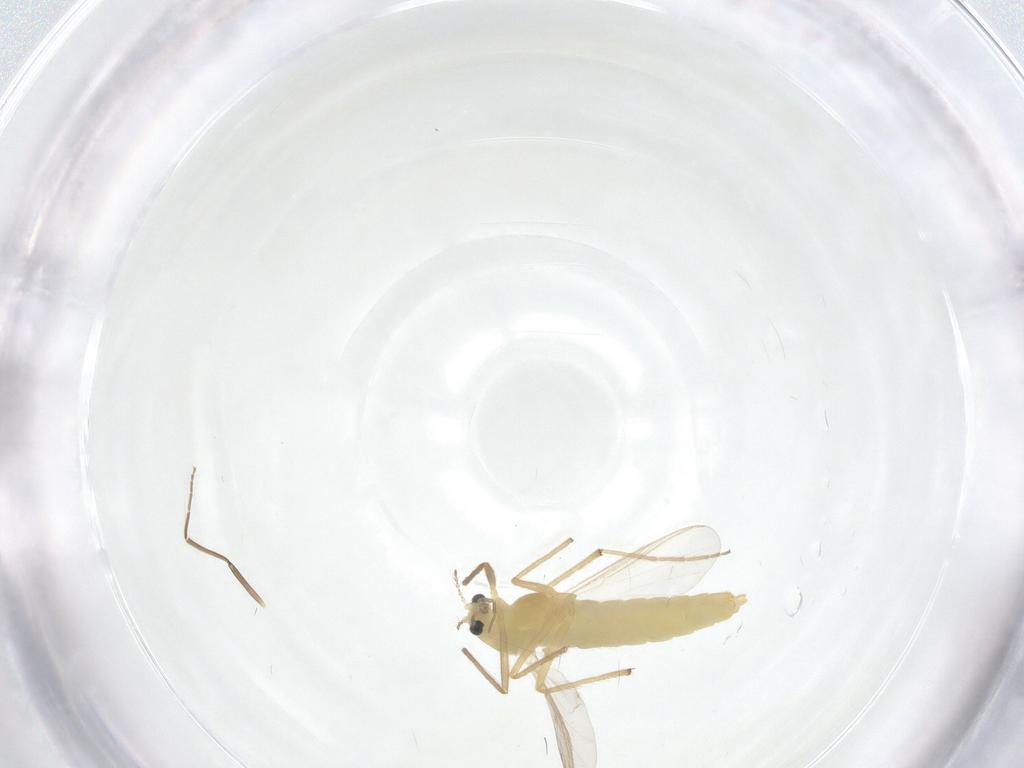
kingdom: Animalia
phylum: Arthropoda
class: Insecta
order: Diptera
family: Chironomidae
